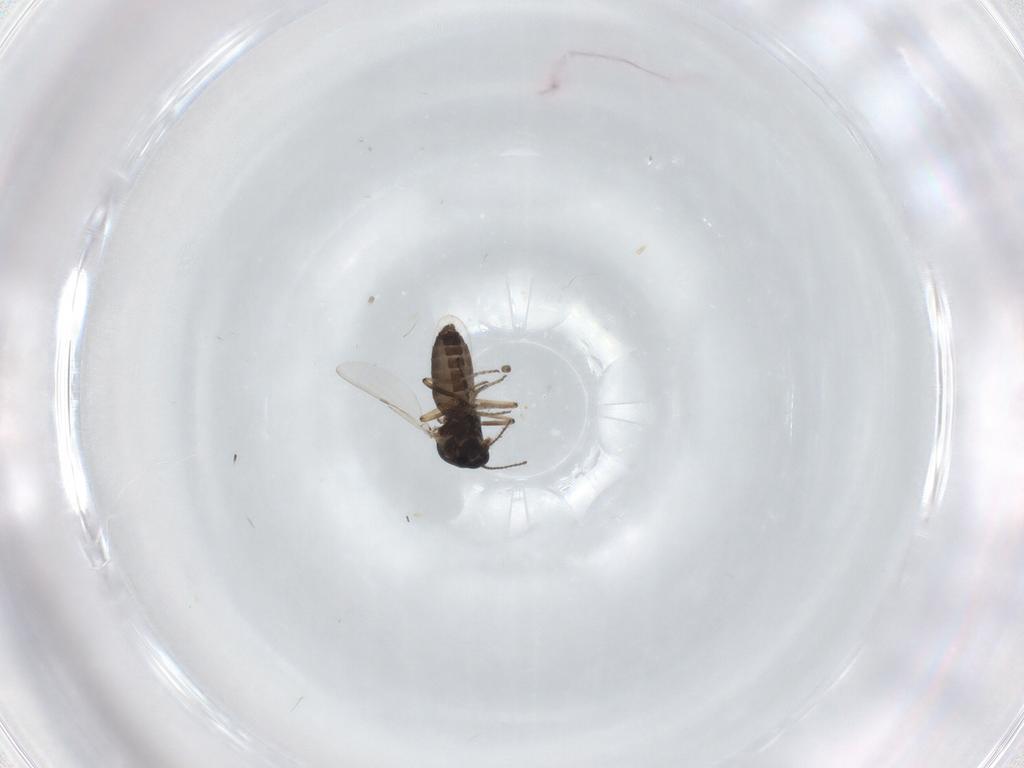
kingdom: Animalia
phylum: Arthropoda
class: Insecta
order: Diptera
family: Ceratopogonidae
